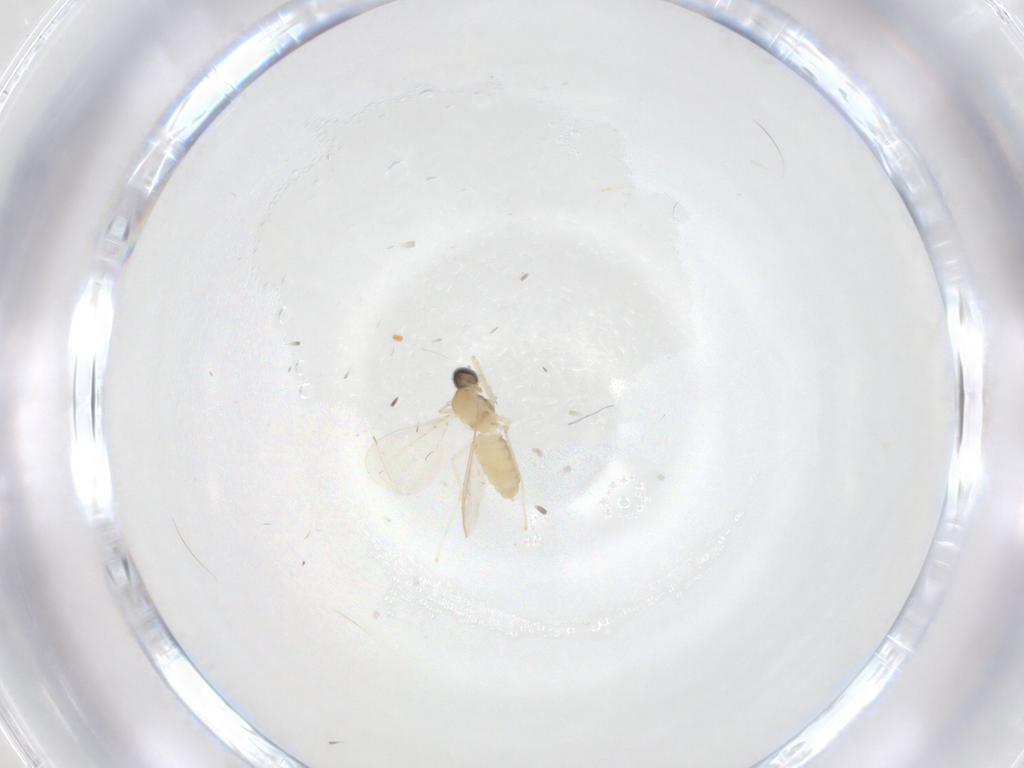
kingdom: Animalia
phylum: Arthropoda
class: Insecta
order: Diptera
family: Cecidomyiidae
